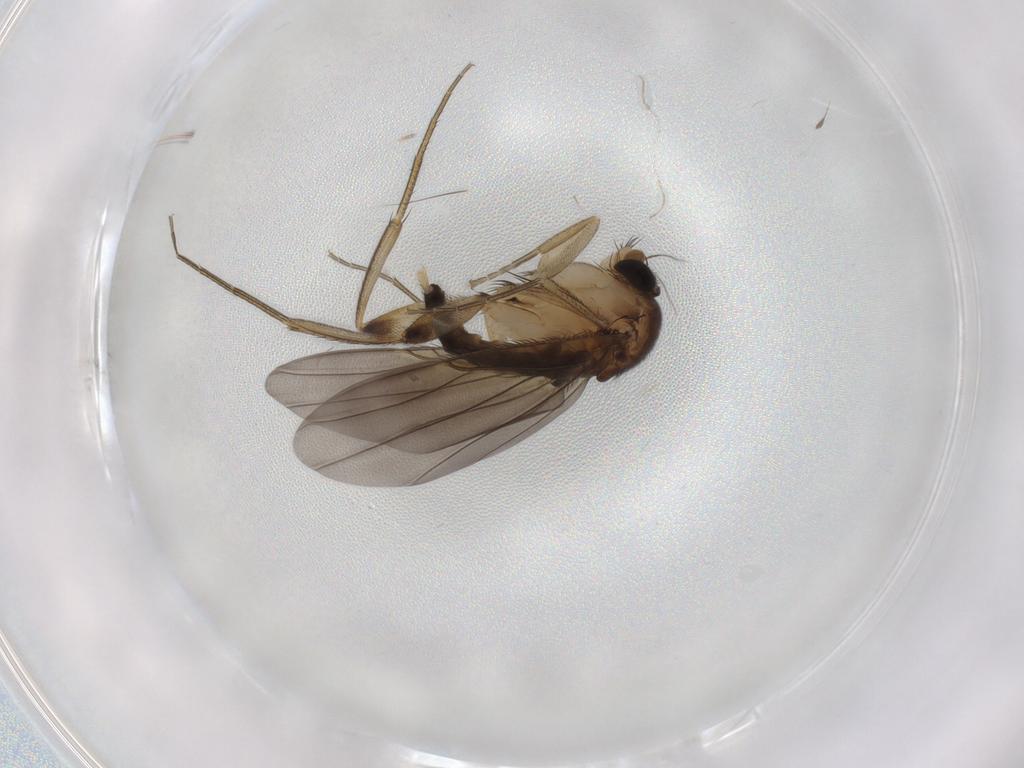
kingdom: Animalia
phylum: Arthropoda
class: Insecta
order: Diptera
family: Phoridae
